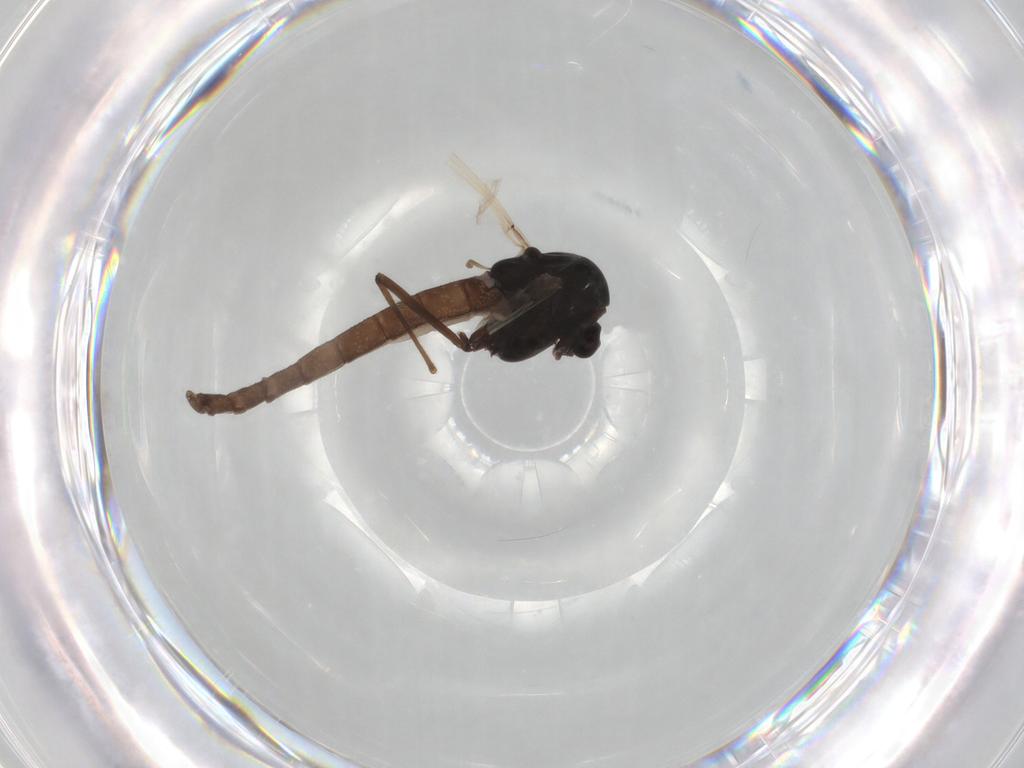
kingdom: Animalia
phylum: Arthropoda
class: Insecta
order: Diptera
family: Chironomidae
